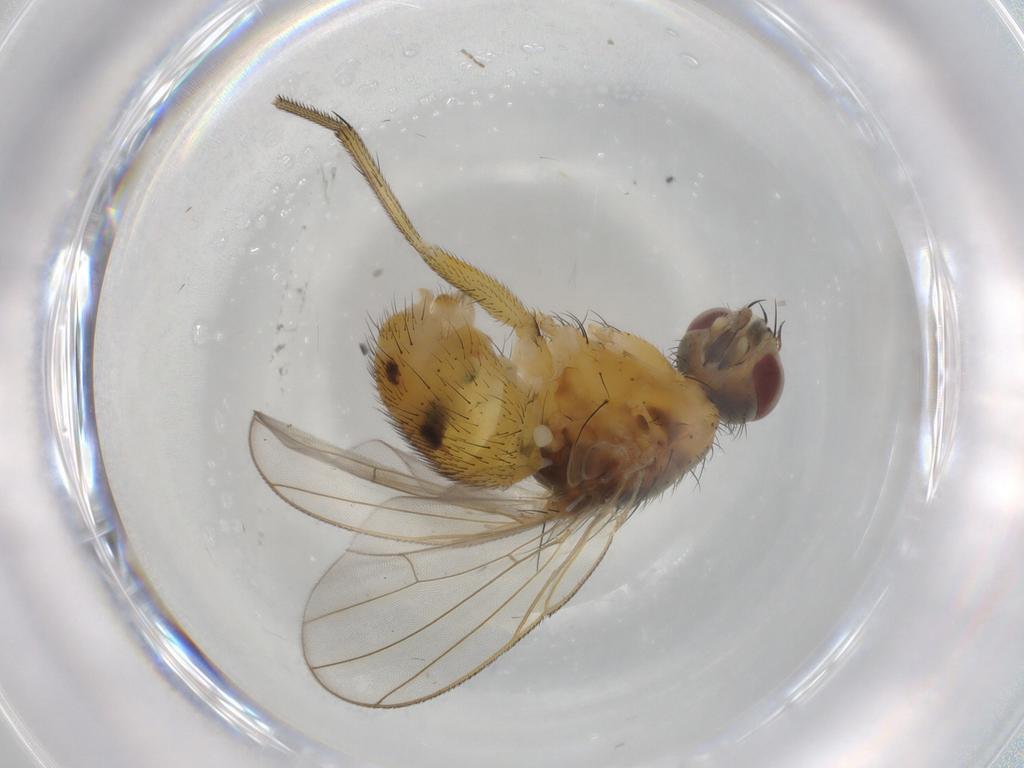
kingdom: Animalia
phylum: Arthropoda
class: Insecta
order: Diptera
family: Muscidae
